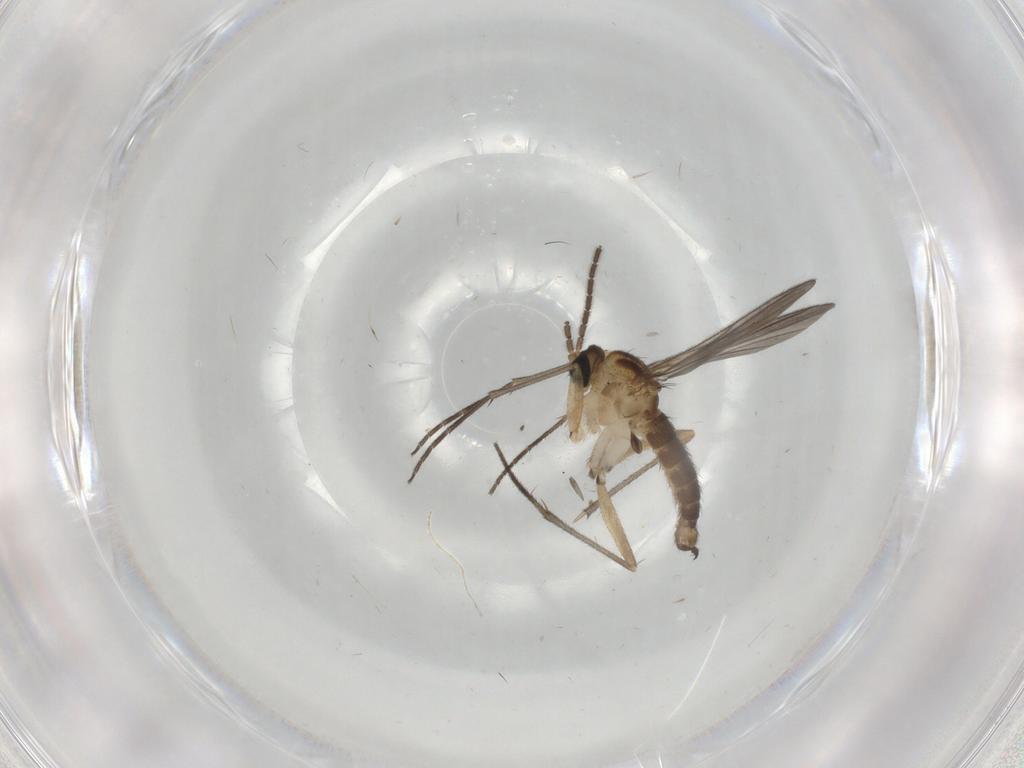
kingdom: Animalia
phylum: Arthropoda
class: Insecta
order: Diptera
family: Sciaridae
